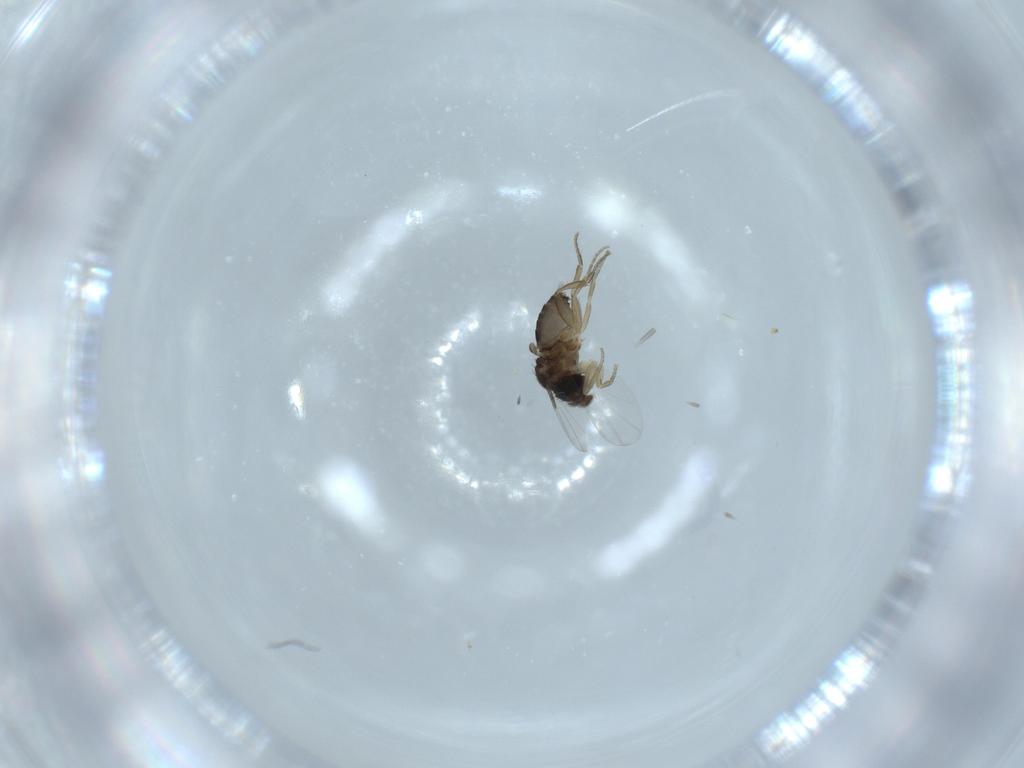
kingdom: Animalia
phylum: Arthropoda
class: Insecta
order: Diptera
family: Phoridae
